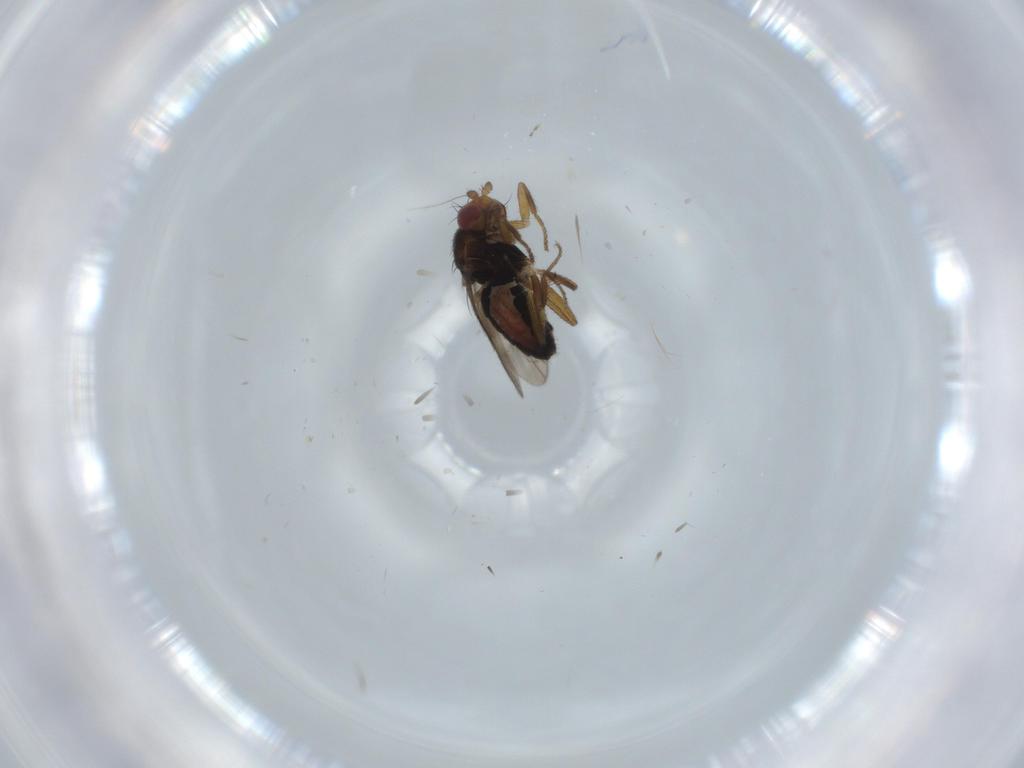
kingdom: Animalia
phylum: Arthropoda
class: Insecta
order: Diptera
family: Sphaeroceridae
